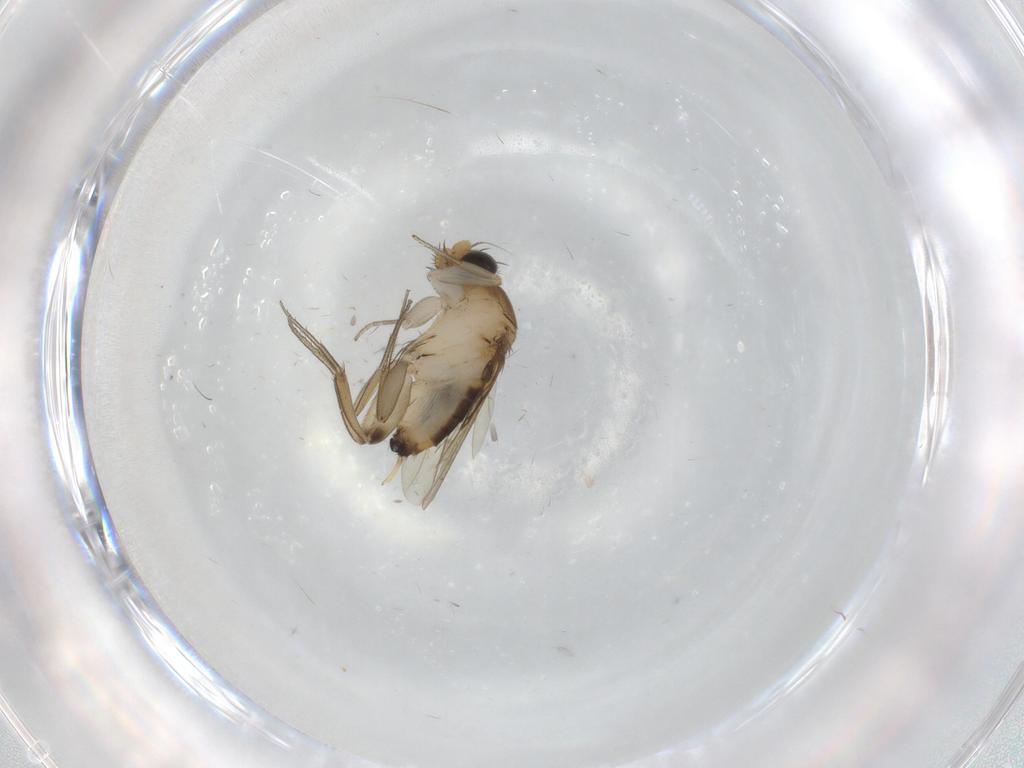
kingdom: Animalia
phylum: Arthropoda
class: Insecta
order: Diptera
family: Phoridae
